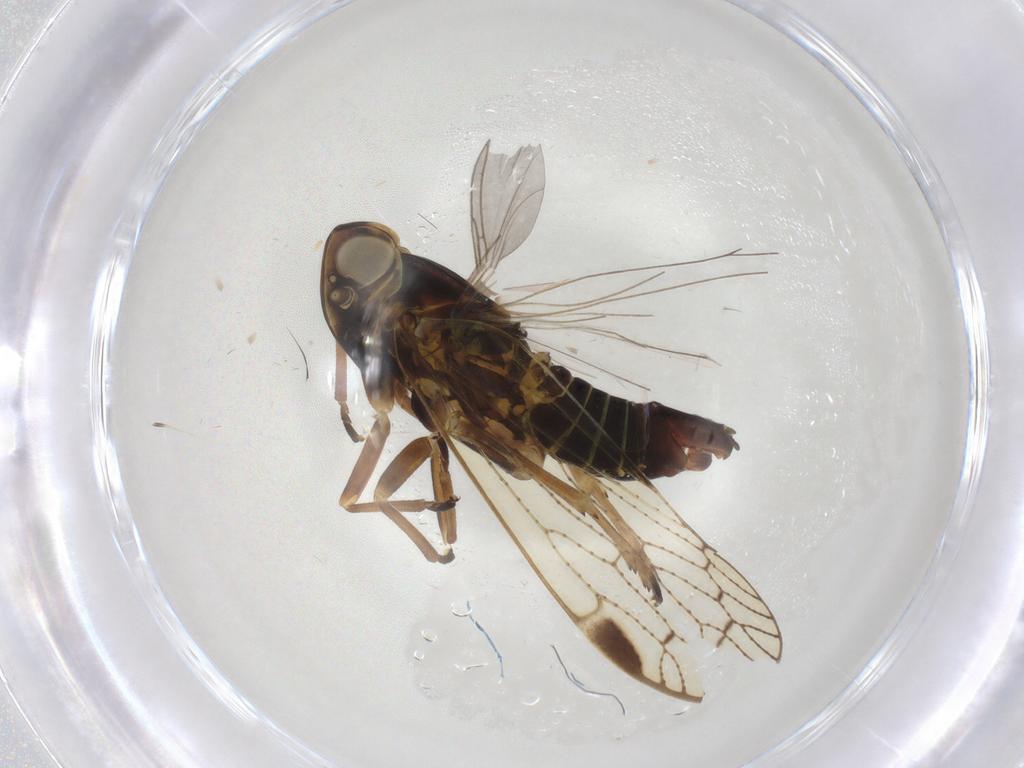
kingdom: Animalia
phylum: Arthropoda
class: Insecta
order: Hemiptera
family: Cixiidae
